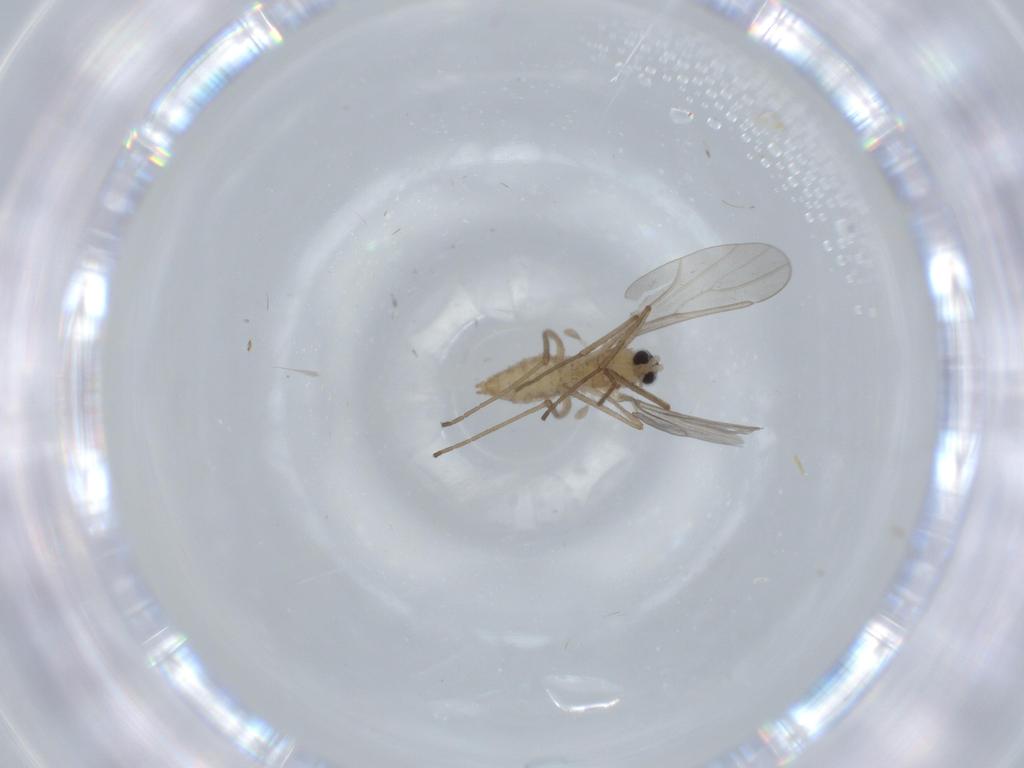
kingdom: Animalia
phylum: Arthropoda
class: Insecta
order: Diptera
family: Cecidomyiidae
